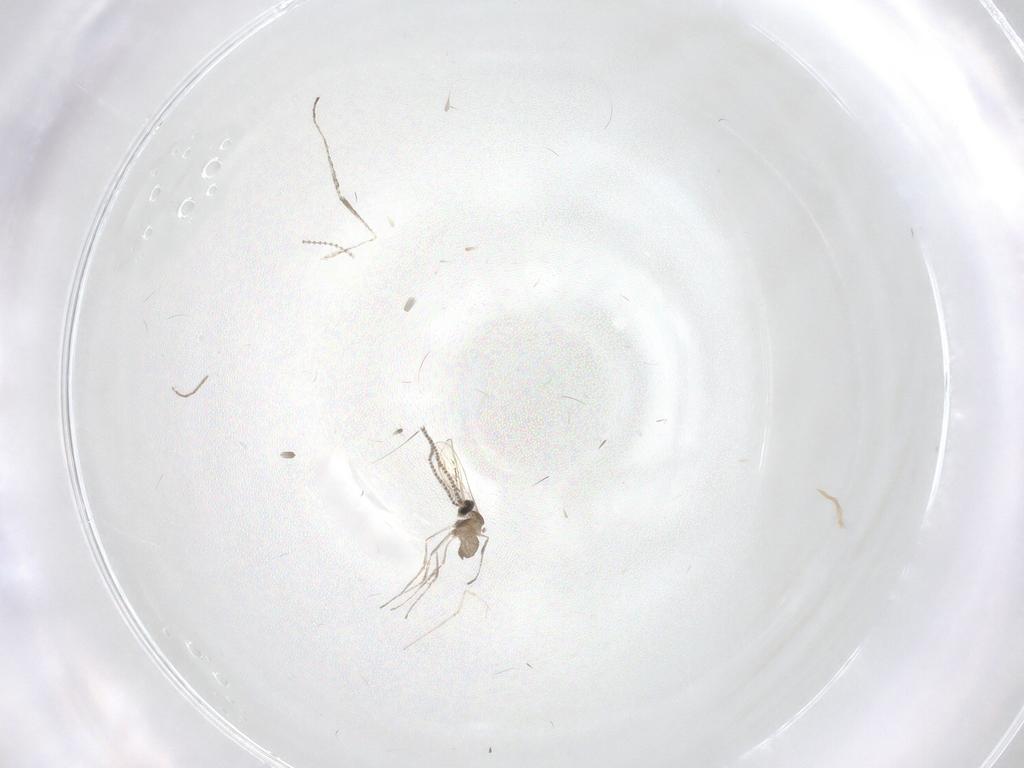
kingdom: Animalia
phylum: Arthropoda
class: Insecta
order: Diptera
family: Cecidomyiidae
